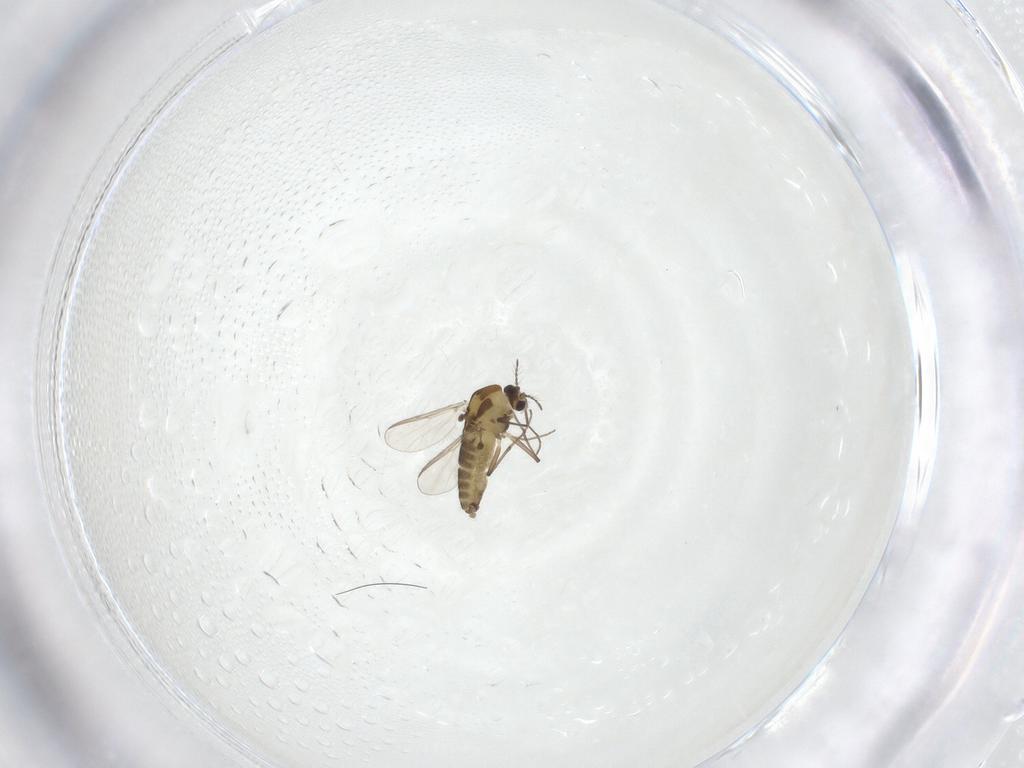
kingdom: Animalia
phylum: Arthropoda
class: Insecta
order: Diptera
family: Chironomidae
